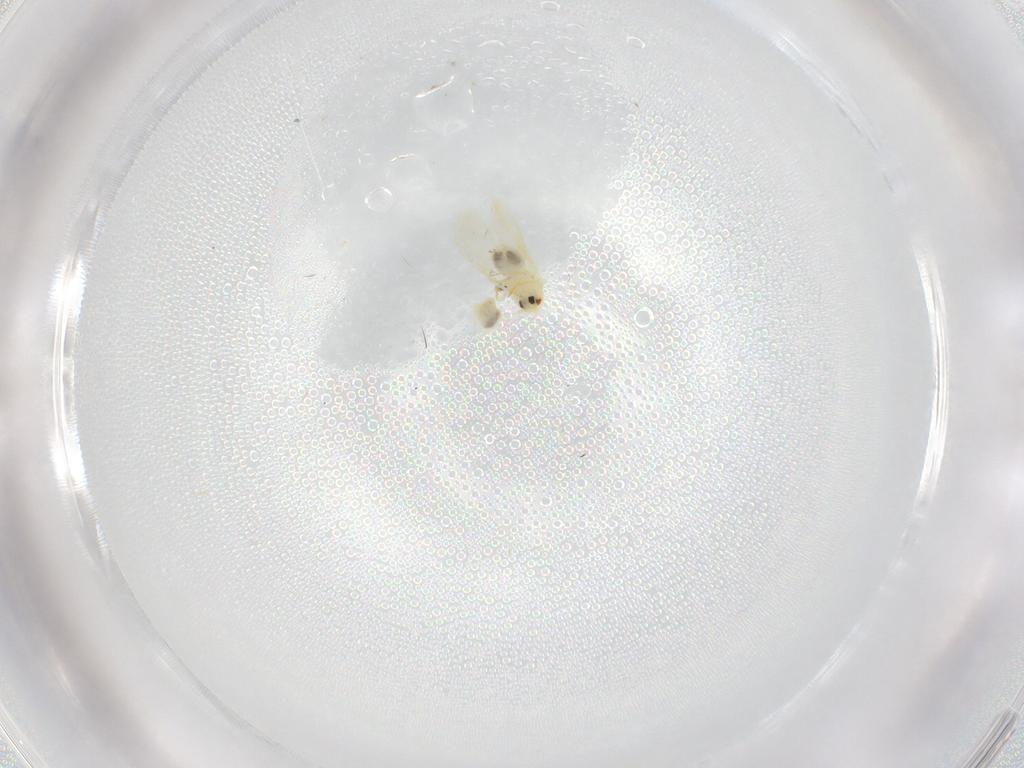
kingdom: Animalia
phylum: Arthropoda
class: Insecta
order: Hemiptera
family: Aleyrodidae
